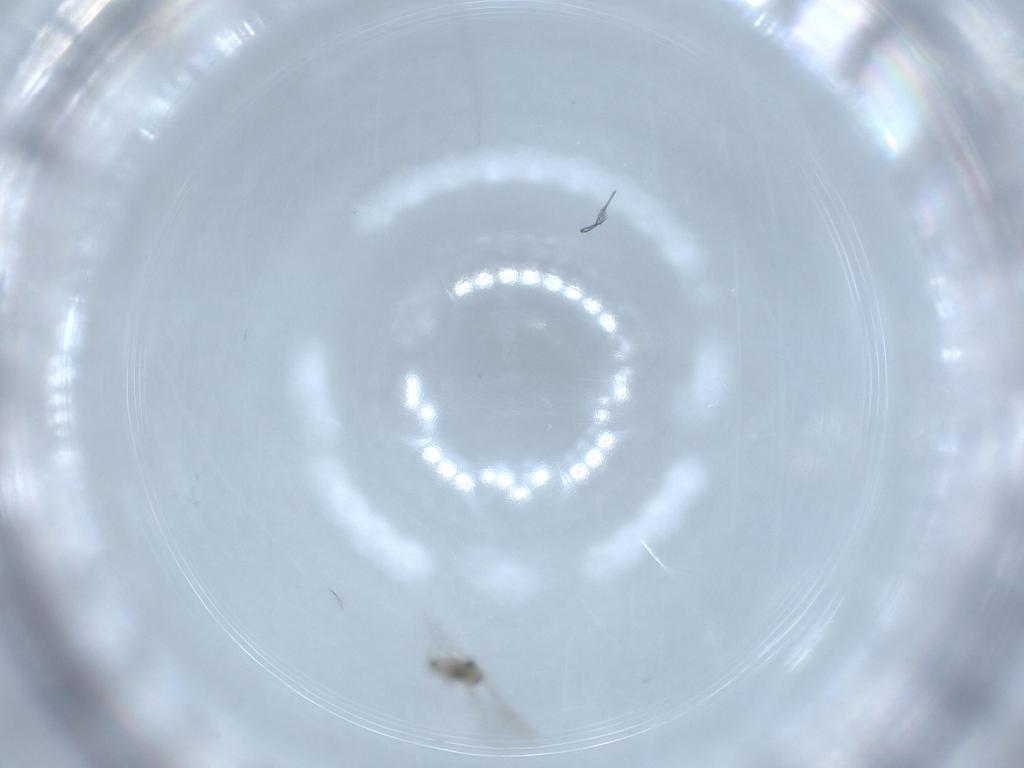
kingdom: Animalia
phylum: Arthropoda
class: Insecta
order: Diptera
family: Cecidomyiidae
